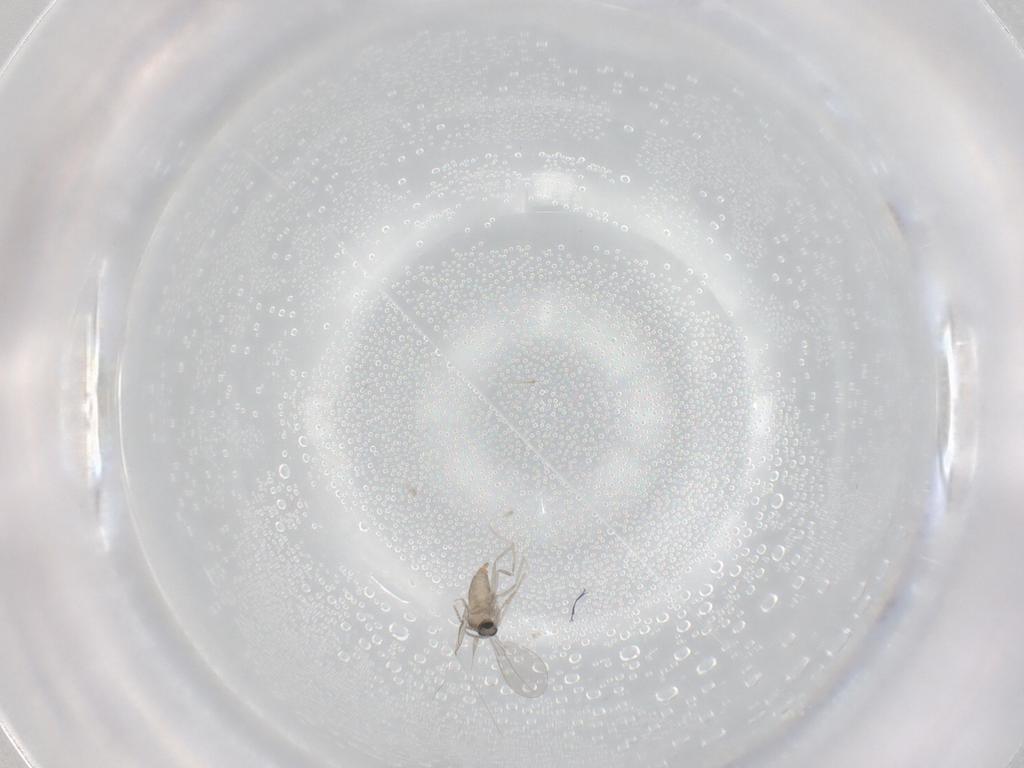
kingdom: Animalia
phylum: Arthropoda
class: Insecta
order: Diptera
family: Cecidomyiidae
